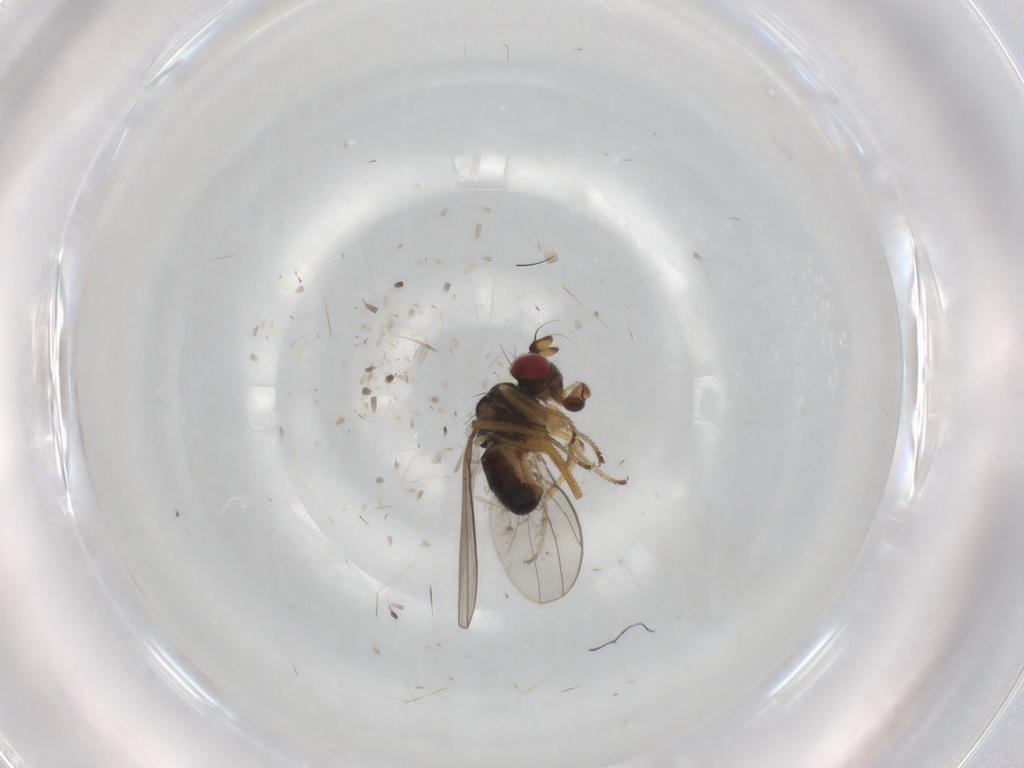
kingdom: Animalia
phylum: Arthropoda
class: Insecta
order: Diptera
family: Ephydridae
